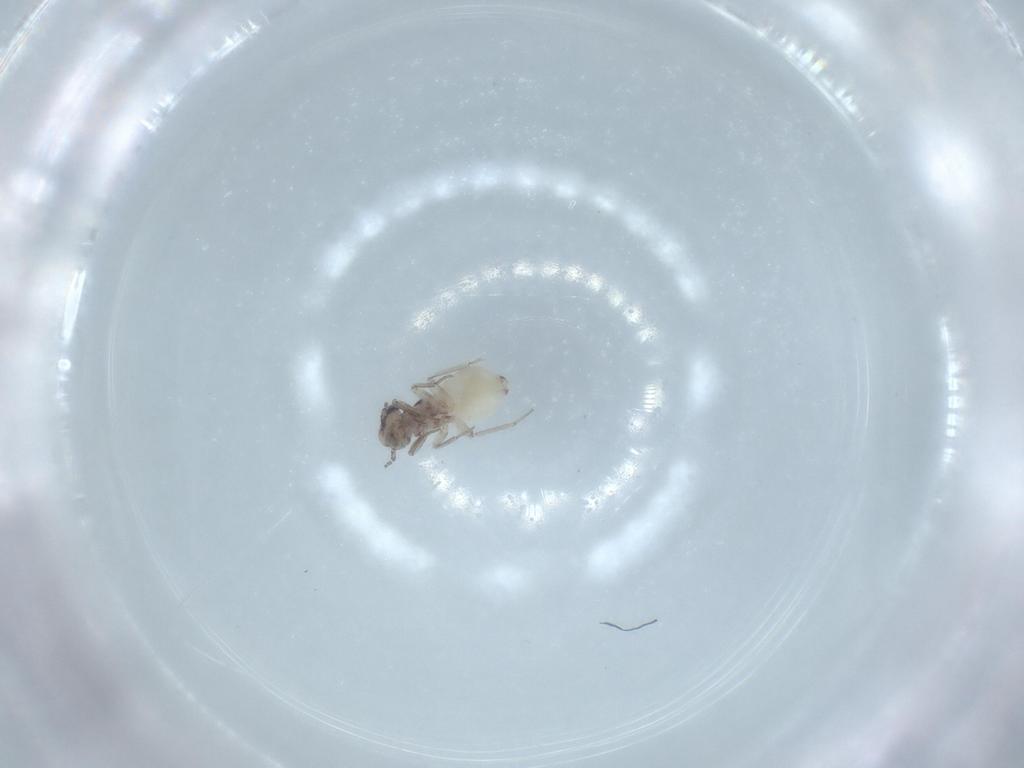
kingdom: Animalia
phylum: Arthropoda
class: Insecta
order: Psocodea
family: Lepidopsocidae
